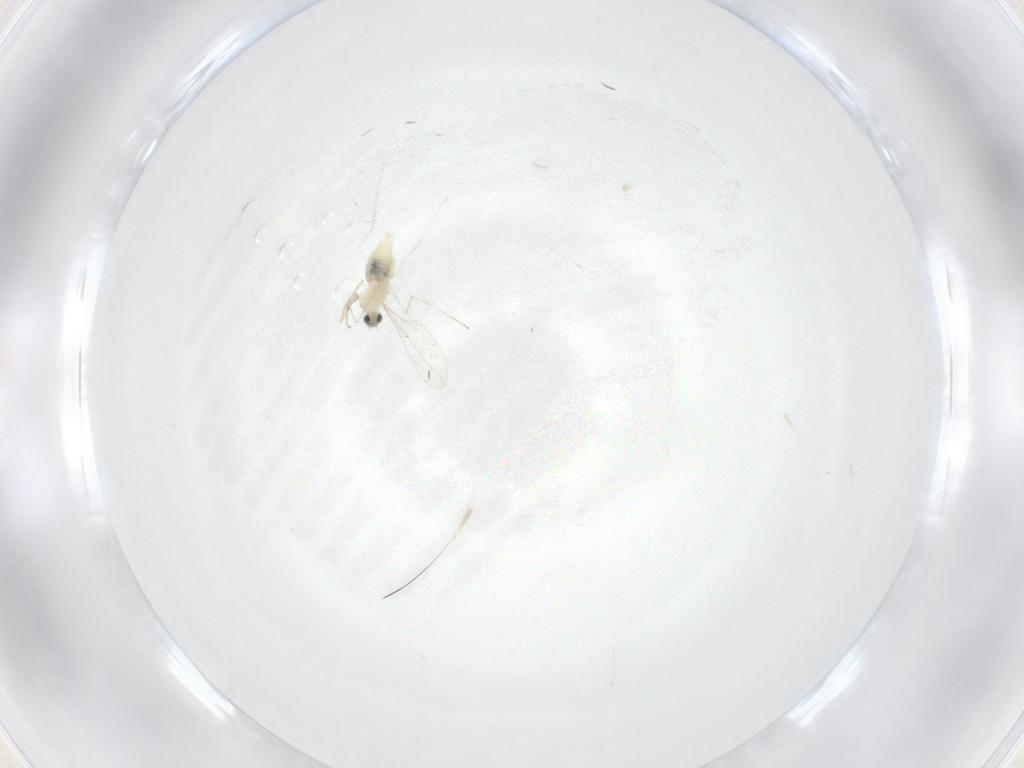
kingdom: Animalia
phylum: Arthropoda
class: Insecta
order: Diptera
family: Cecidomyiidae
